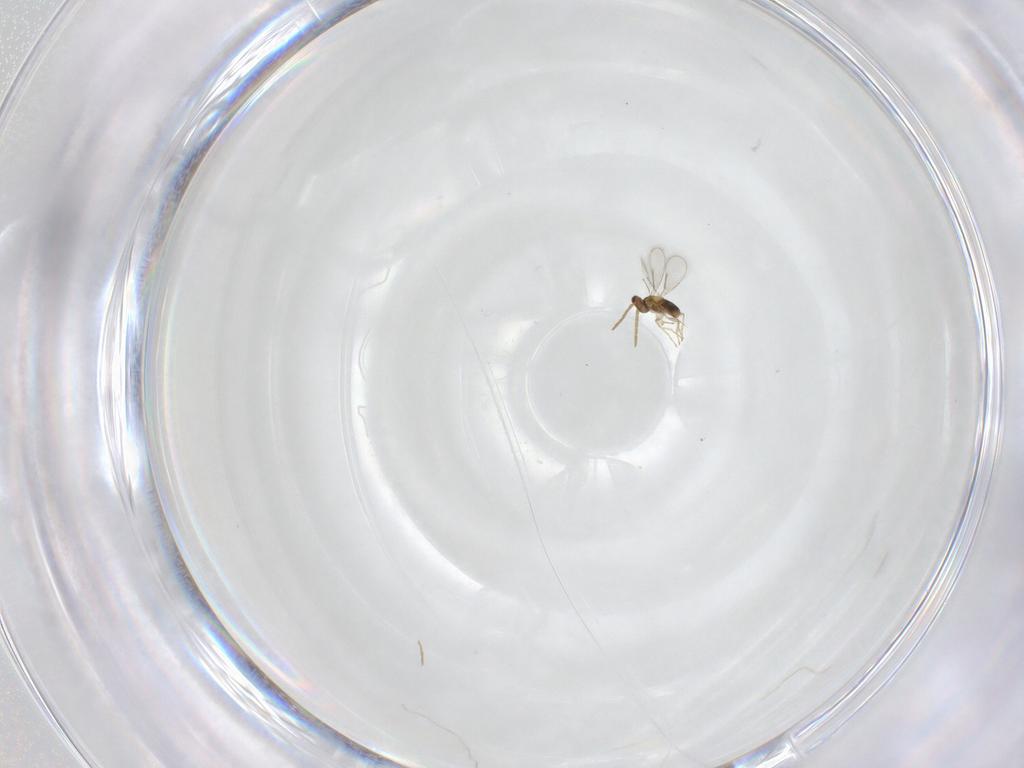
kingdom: Animalia
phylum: Arthropoda
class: Insecta
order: Hymenoptera
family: Aphelinidae
